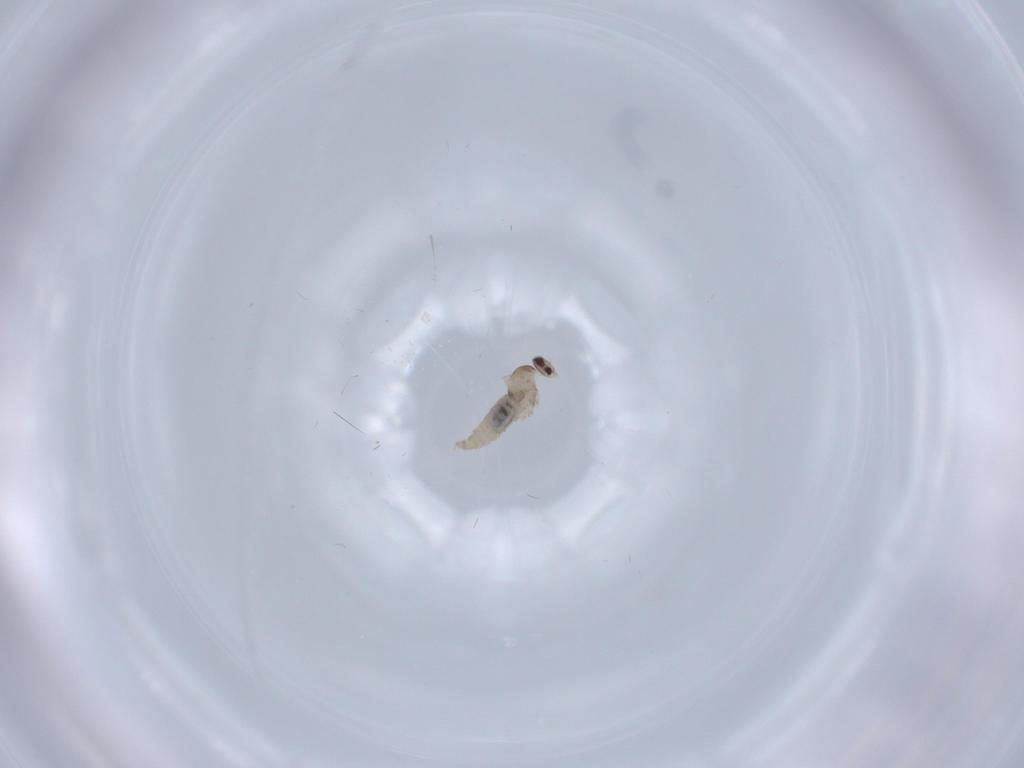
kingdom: Animalia
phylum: Arthropoda
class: Insecta
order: Diptera
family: Cecidomyiidae
